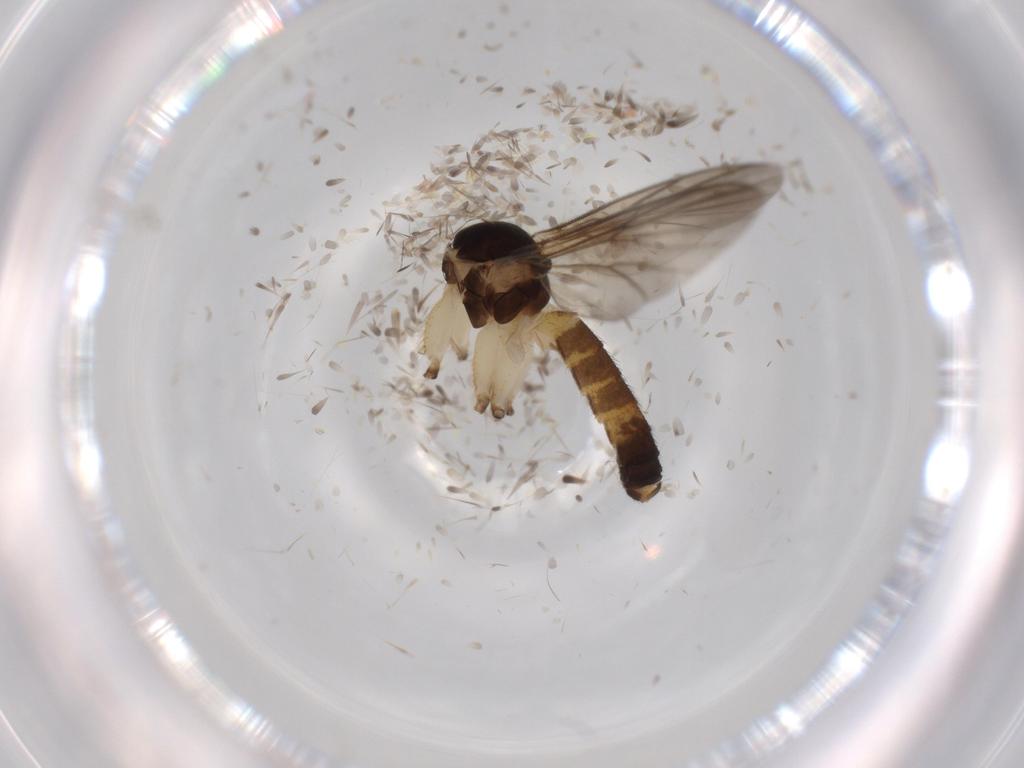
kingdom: Animalia
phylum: Arthropoda
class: Insecta
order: Diptera
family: Mycetophilidae
